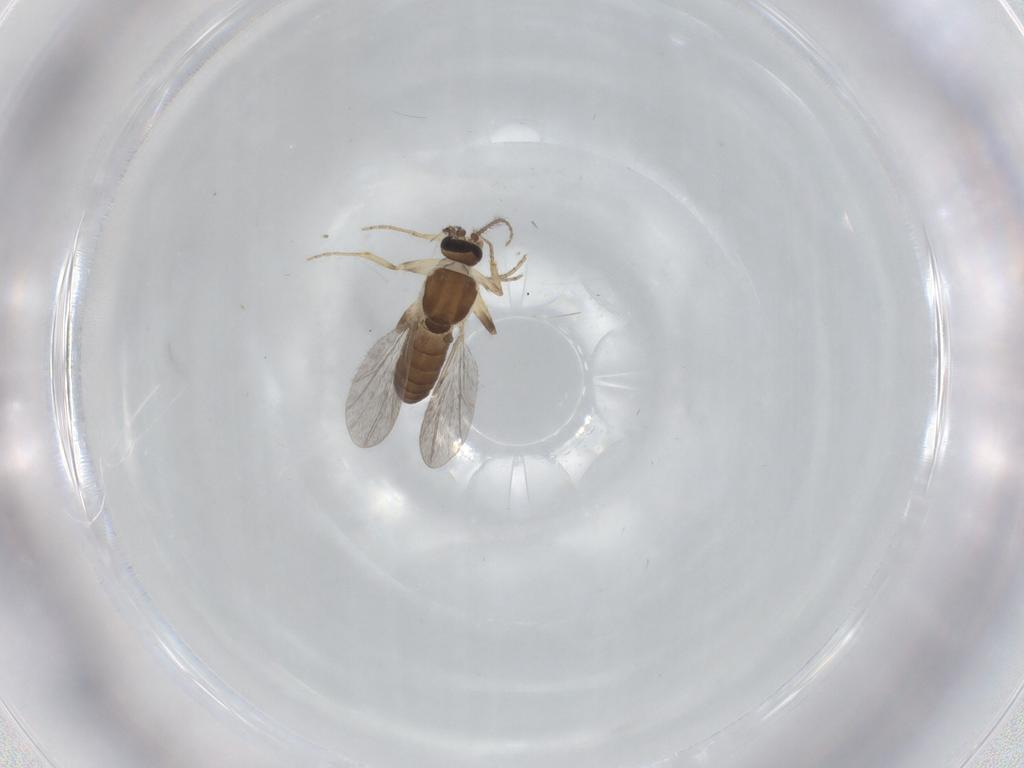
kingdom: Animalia
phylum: Arthropoda
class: Insecta
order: Diptera
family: Ceratopogonidae
